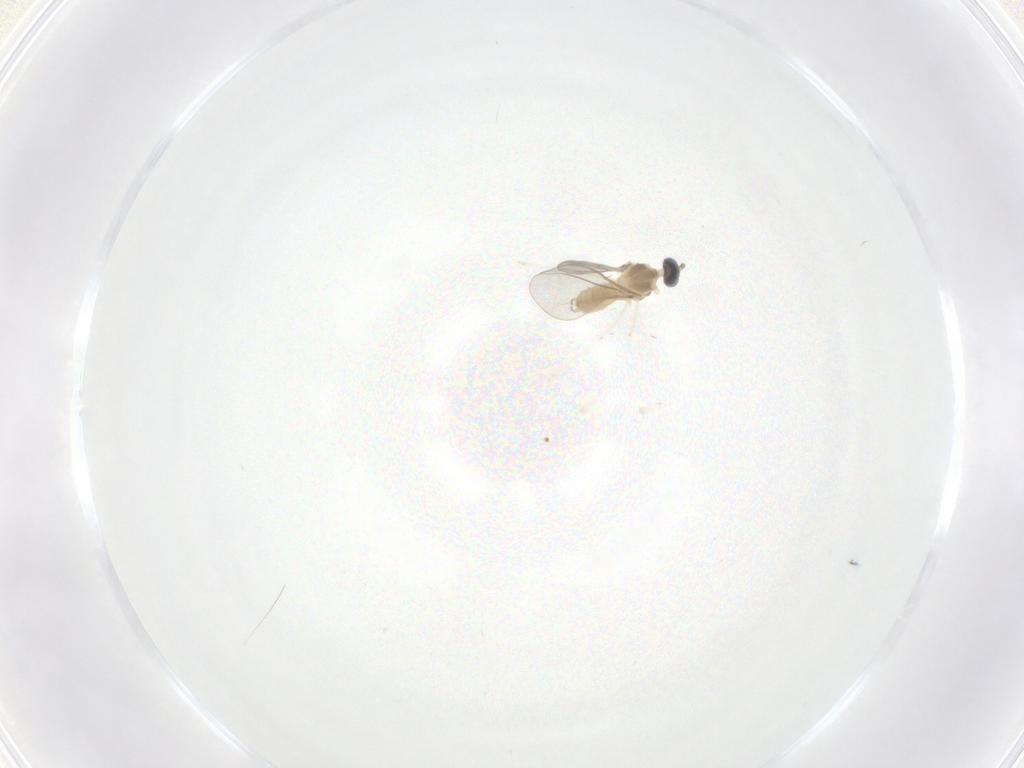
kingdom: Animalia
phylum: Arthropoda
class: Insecta
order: Diptera
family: Cecidomyiidae
